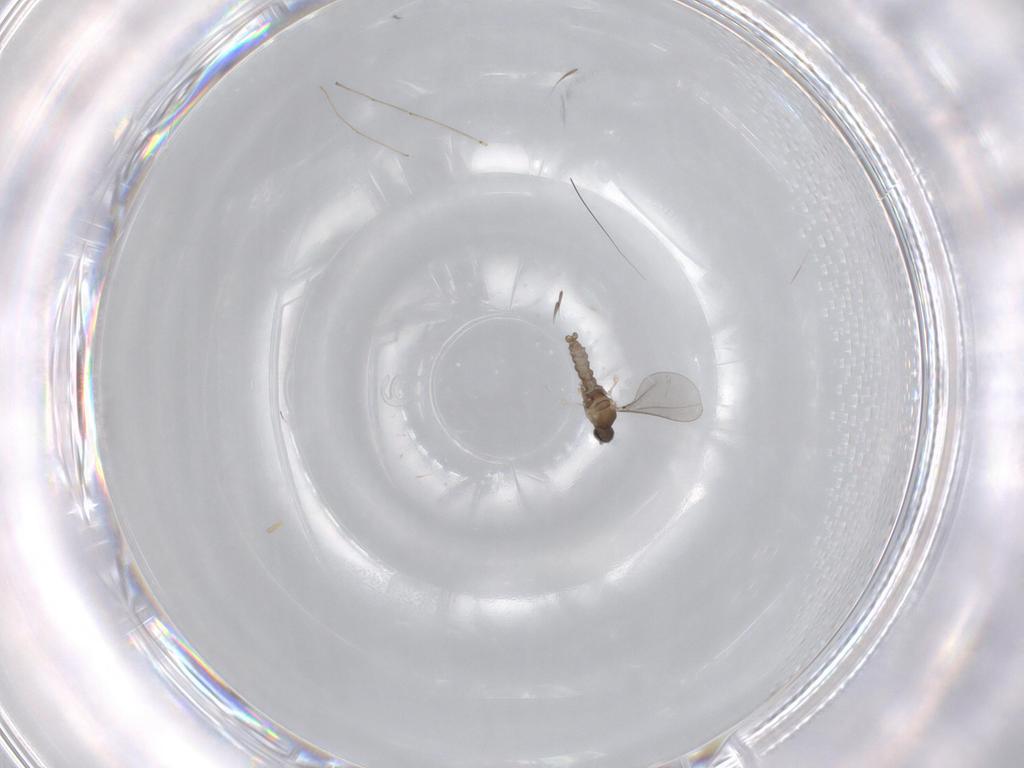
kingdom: Animalia
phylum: Arthropoda
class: Insecta
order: Diptera
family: Chironomidae
